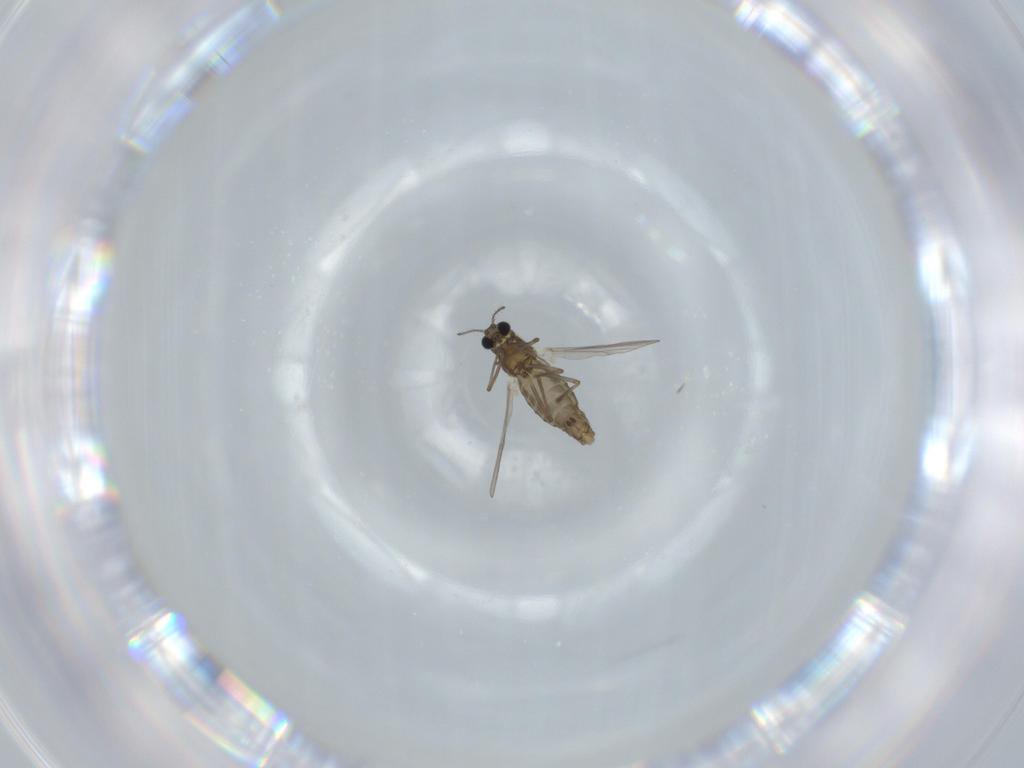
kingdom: Animalia
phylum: Arthropoda
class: Insecta
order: Diptera
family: Chironomidae
